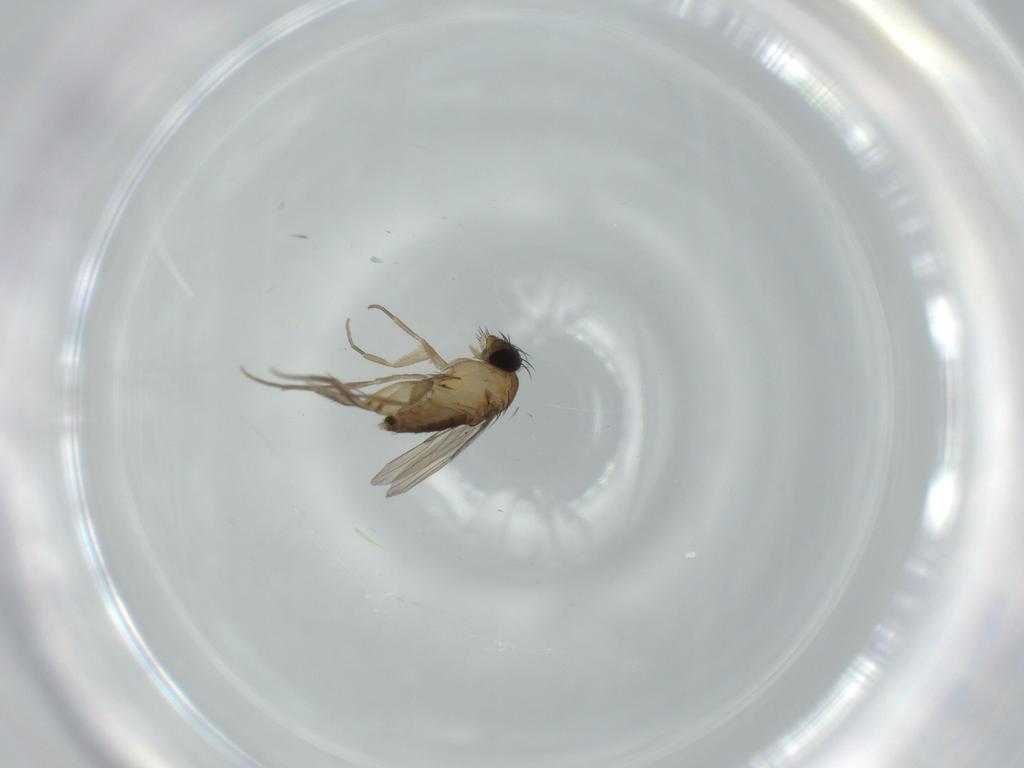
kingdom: Animalia
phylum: Arthropoda
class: Insecta
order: Diptera
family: Phoridae
